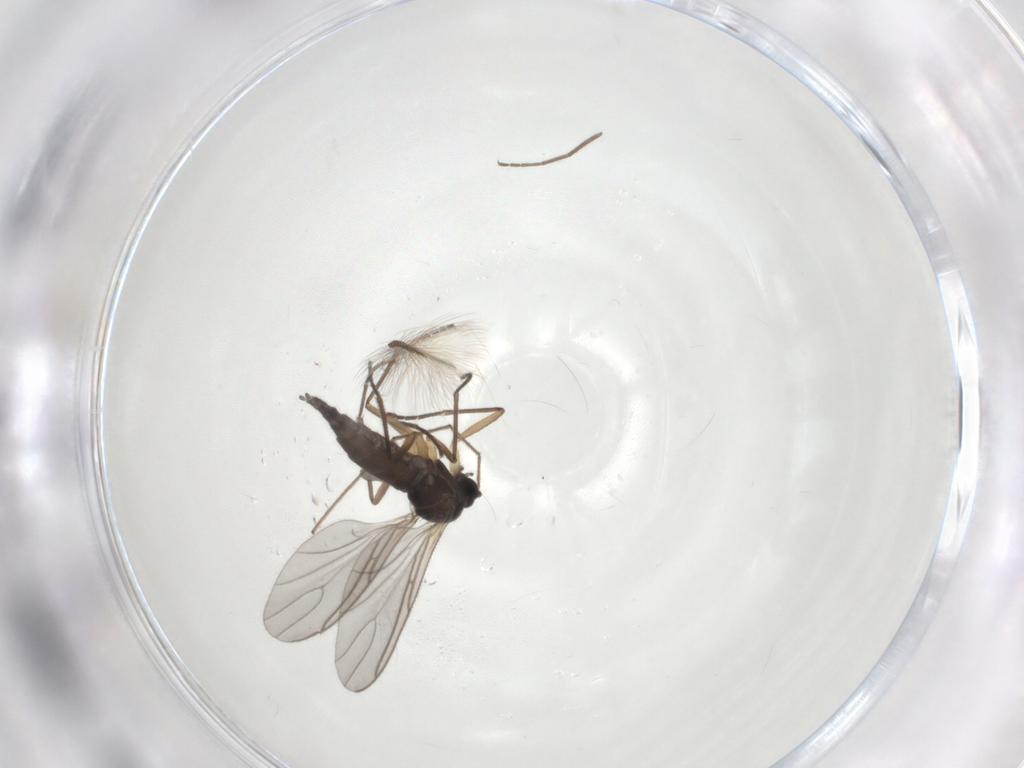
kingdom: Animalia
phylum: Arthropoda
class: Insecta
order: Diptera
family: Sciaridae
